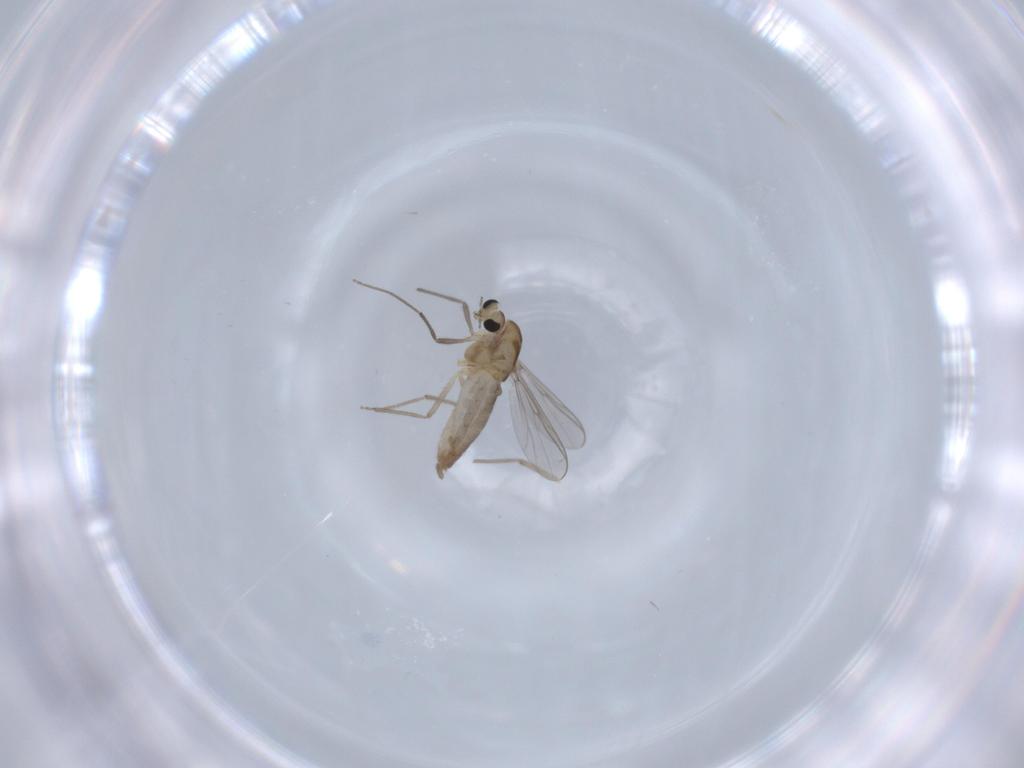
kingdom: Animalia
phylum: Arthropoda
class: Insecta
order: Diptera
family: Chironomidae
